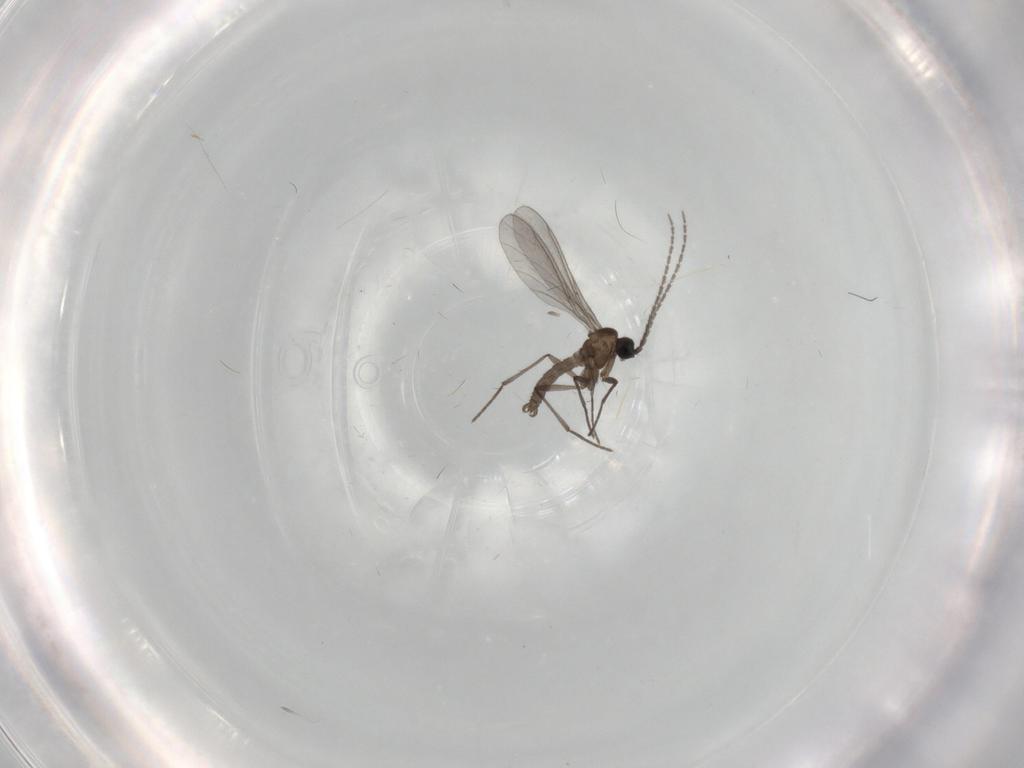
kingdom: Animalia
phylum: Arthropoda
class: Insecta
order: Diptera
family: Sciaridae
